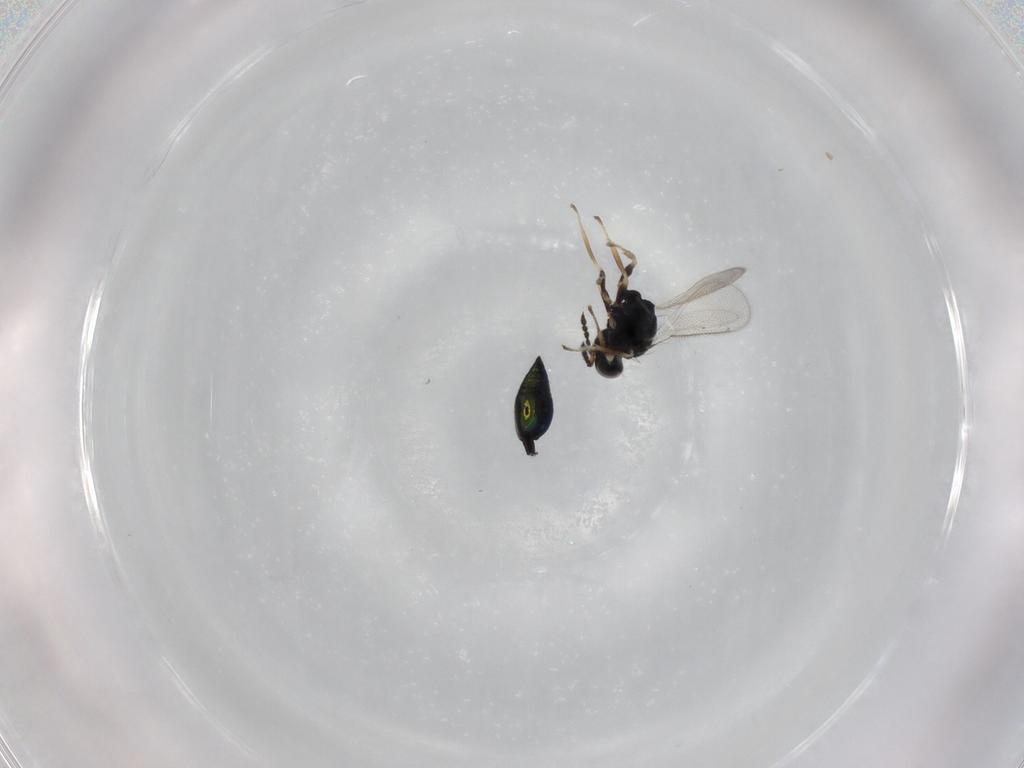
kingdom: Animalia
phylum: Arthropoda
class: Insecta
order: Hymenoptera
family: Eulophidae
